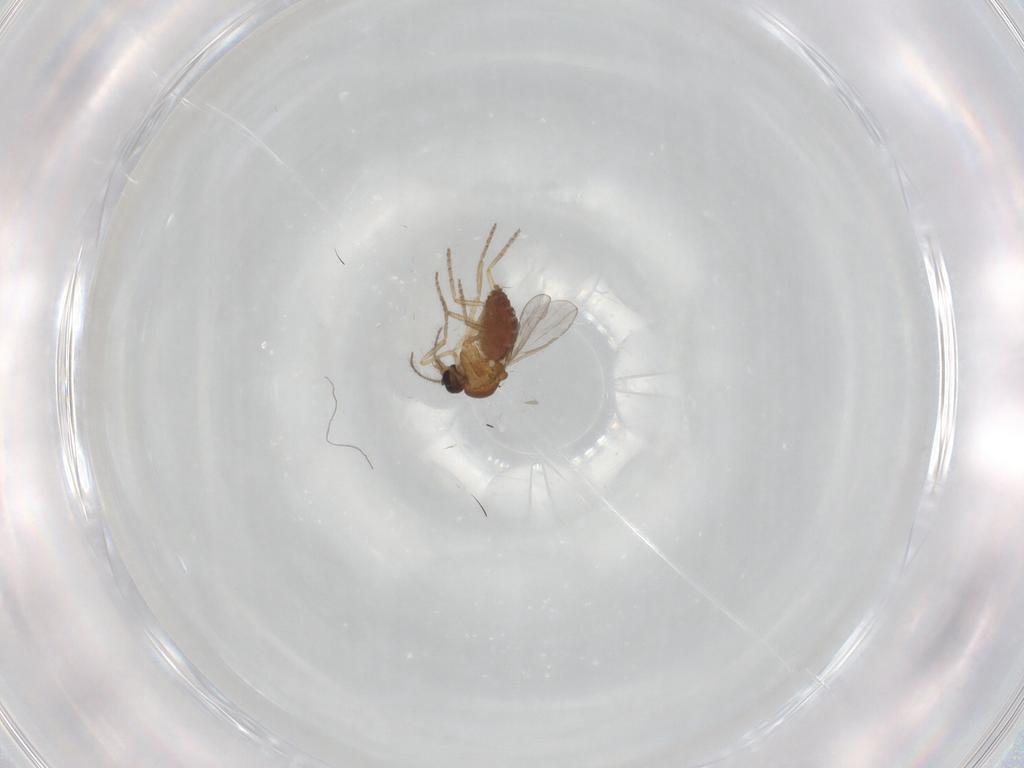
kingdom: Animalia
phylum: Arthropoda
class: Insecta
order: Diptera
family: Ceratopogonidae
